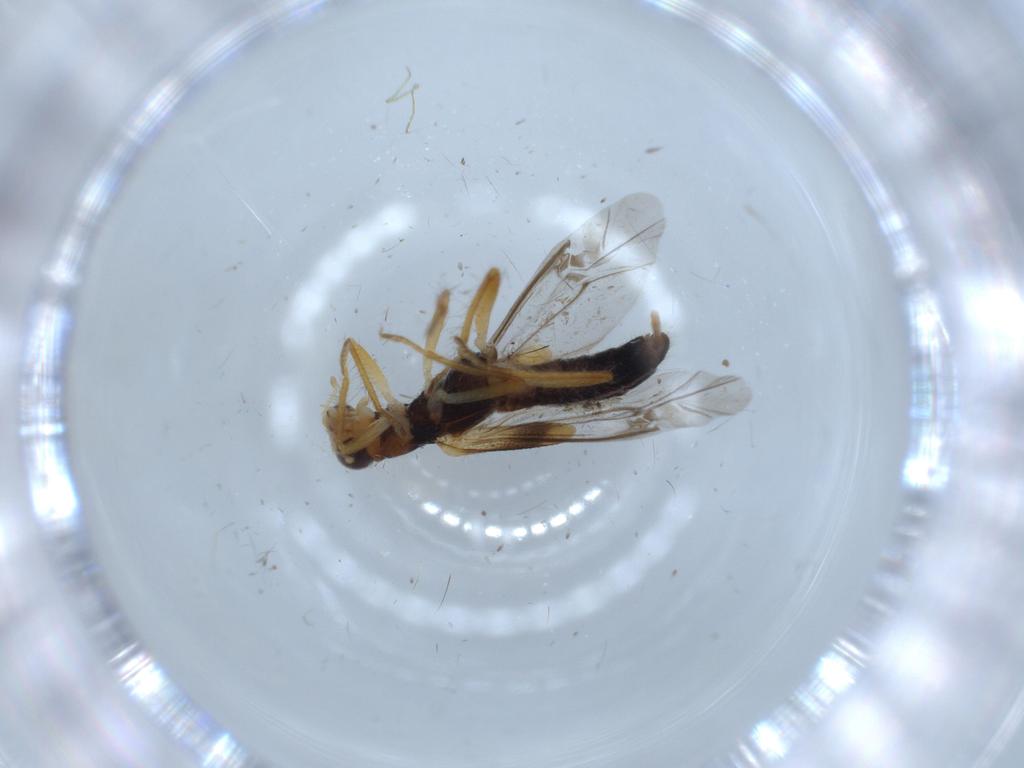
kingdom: Animalia
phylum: Arthropoda
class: Insecta
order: Coleoptera
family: Cleridae
